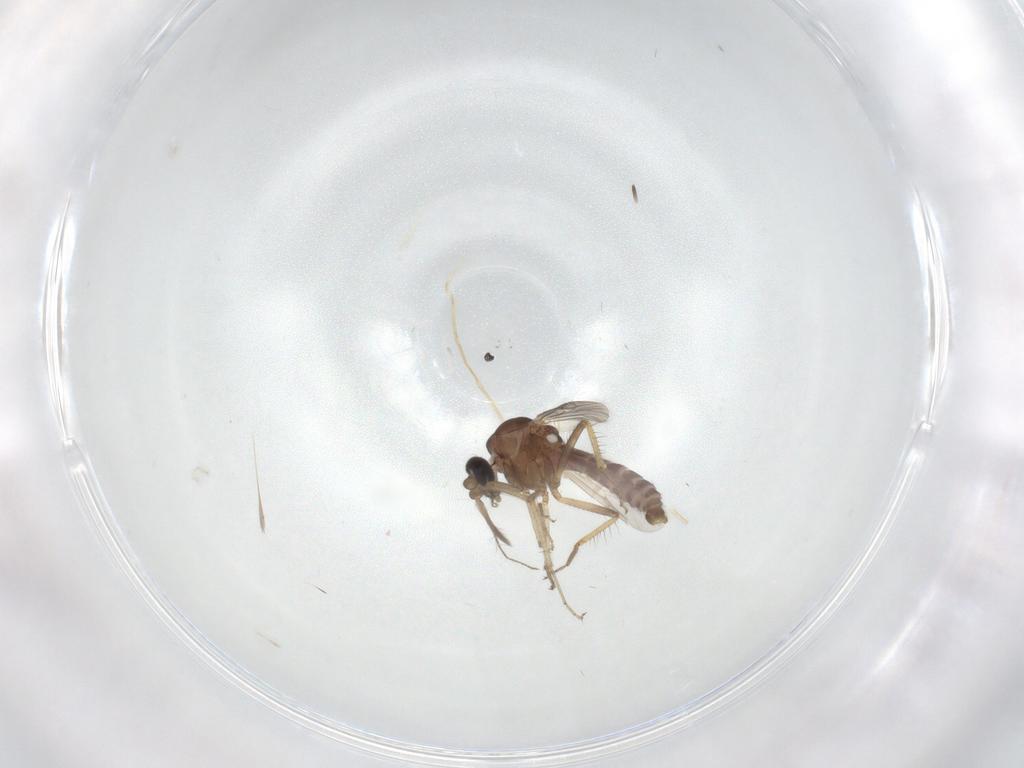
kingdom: Animalia
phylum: Arthropoda
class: Insecta
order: Diptera
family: Ceratopogonidae
